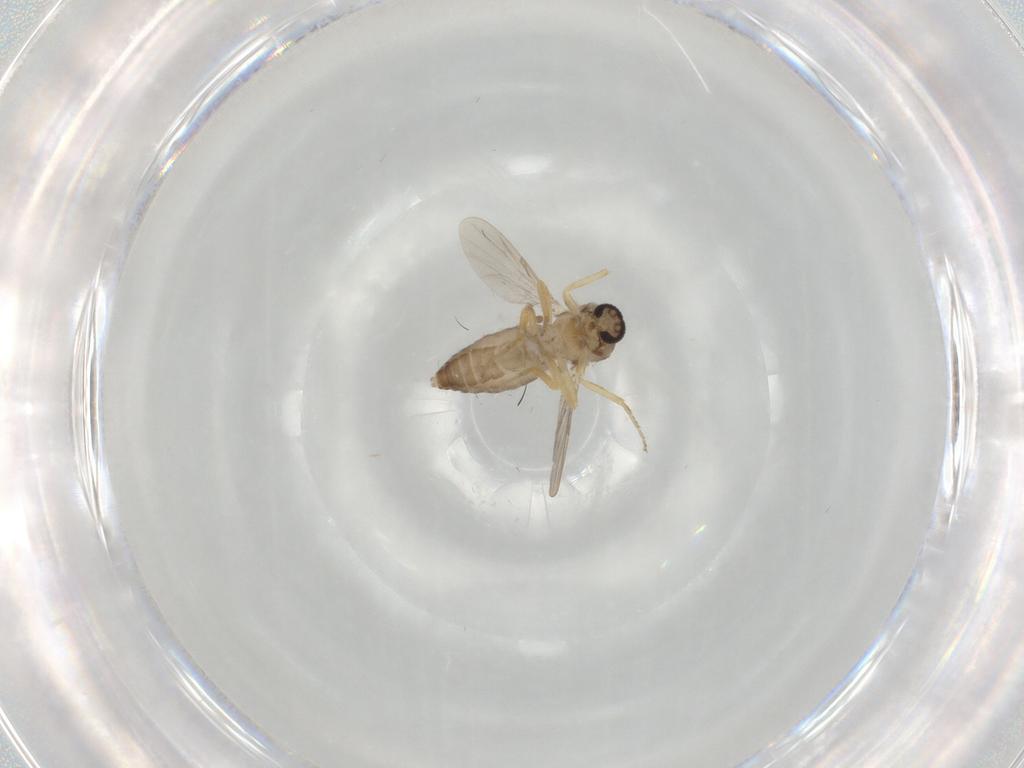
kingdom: Animalia
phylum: Arthropoda
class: Insecta
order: Diptera
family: Ceratopogonidae
